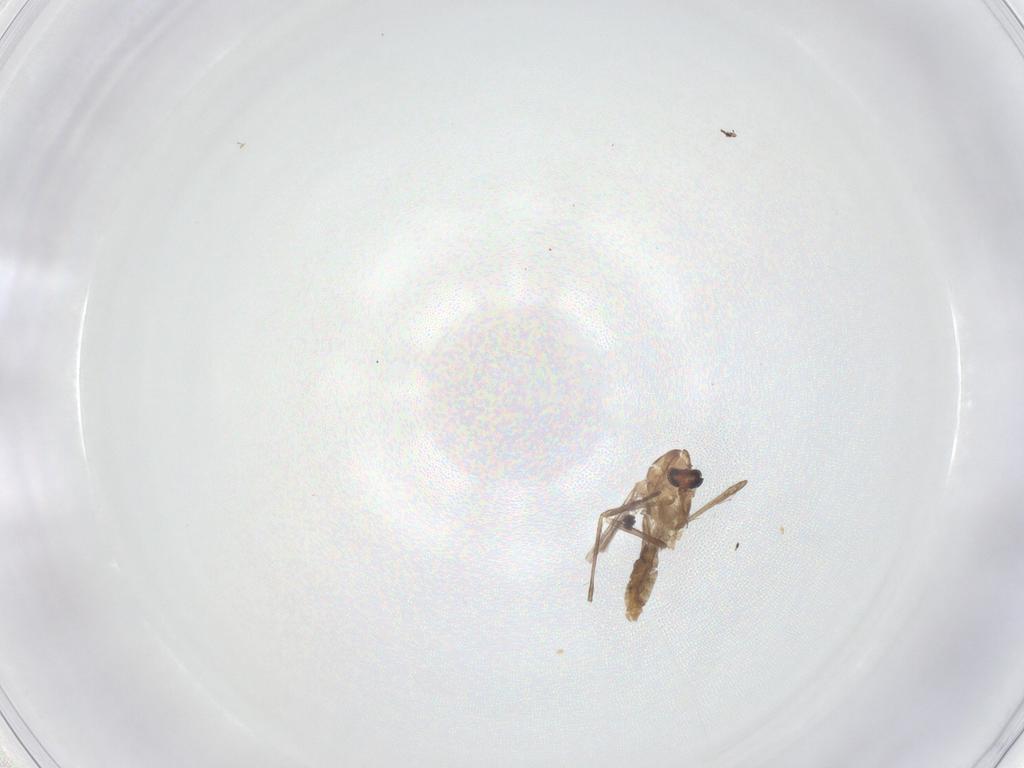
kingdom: Animalia
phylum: Arthropoda
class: Insecta
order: Diptera
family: Chironomidae
